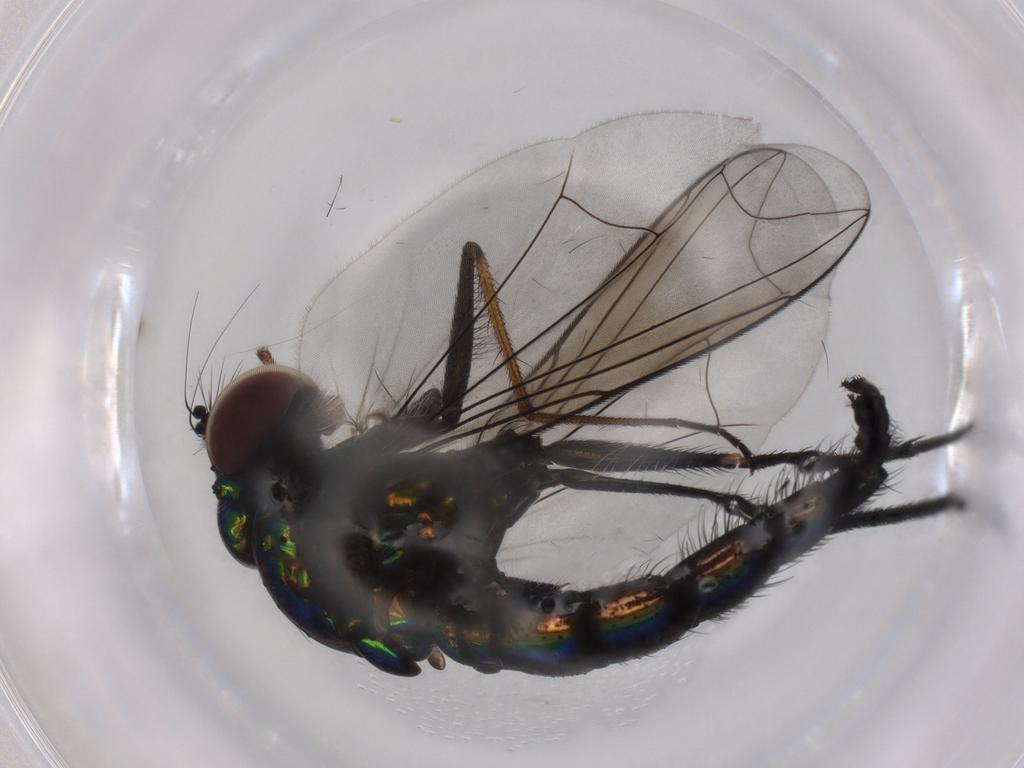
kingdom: Animalia
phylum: Arthropoda
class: Insecta
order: Diptera
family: Dolichopodidae
